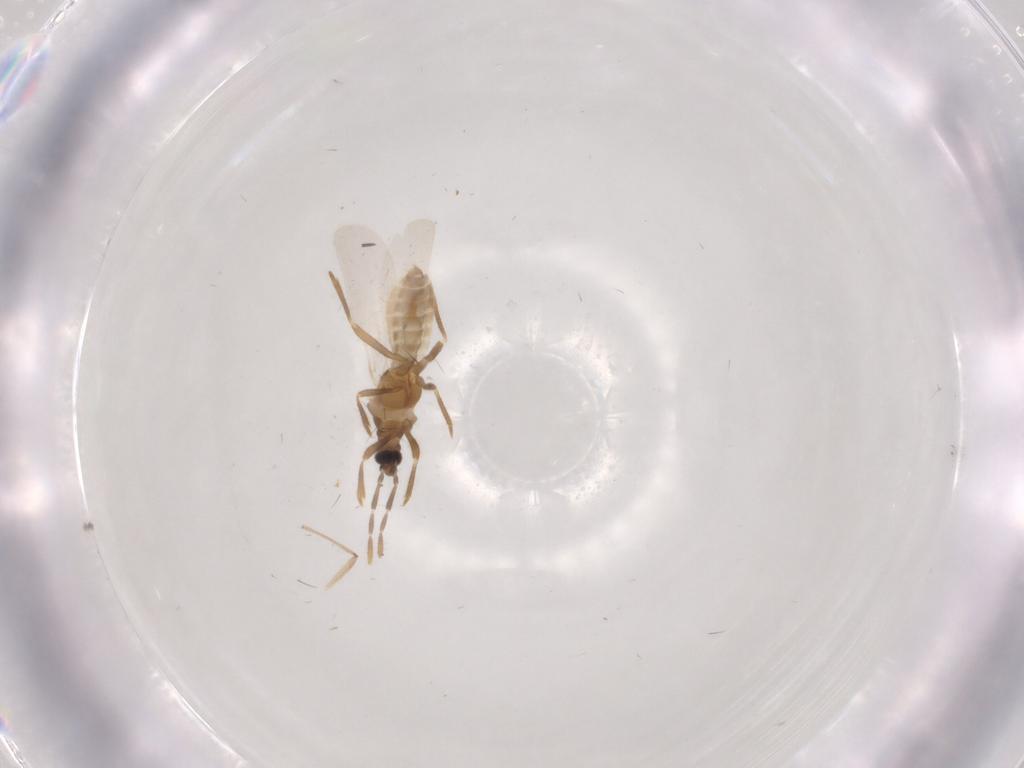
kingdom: Animalia
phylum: Arthropoda
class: Insecta
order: Hemiptera
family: Enicocephalidae
